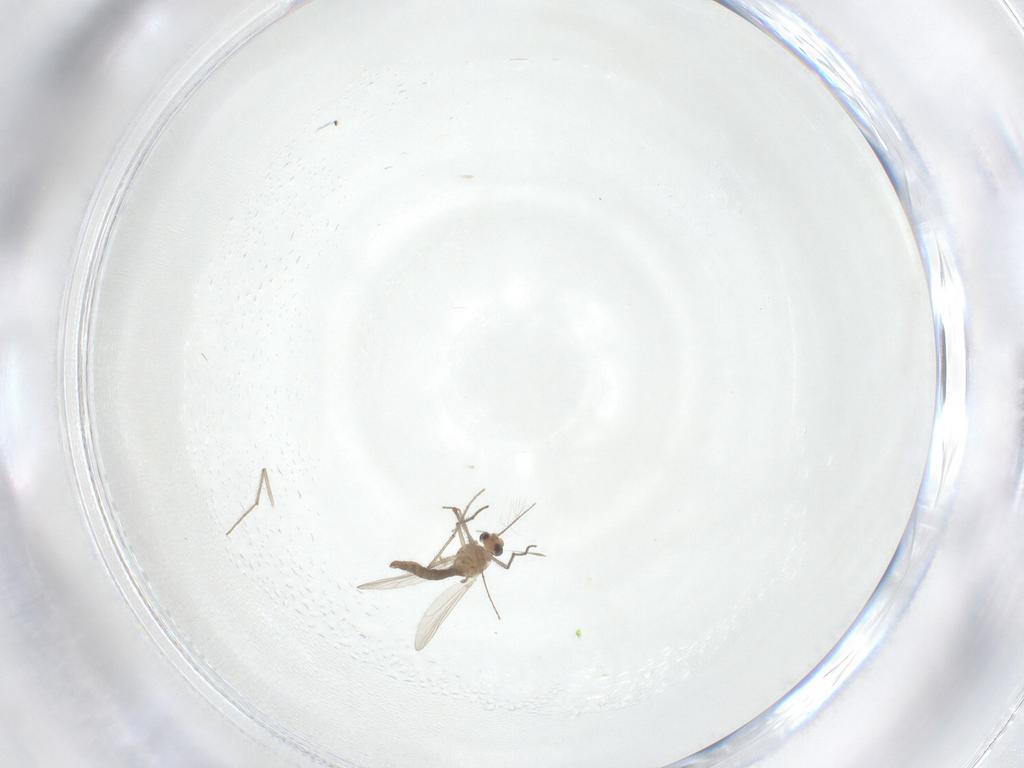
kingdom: Animalia
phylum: Arthropoda
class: Insecta
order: Diptera
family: Chironomidae
